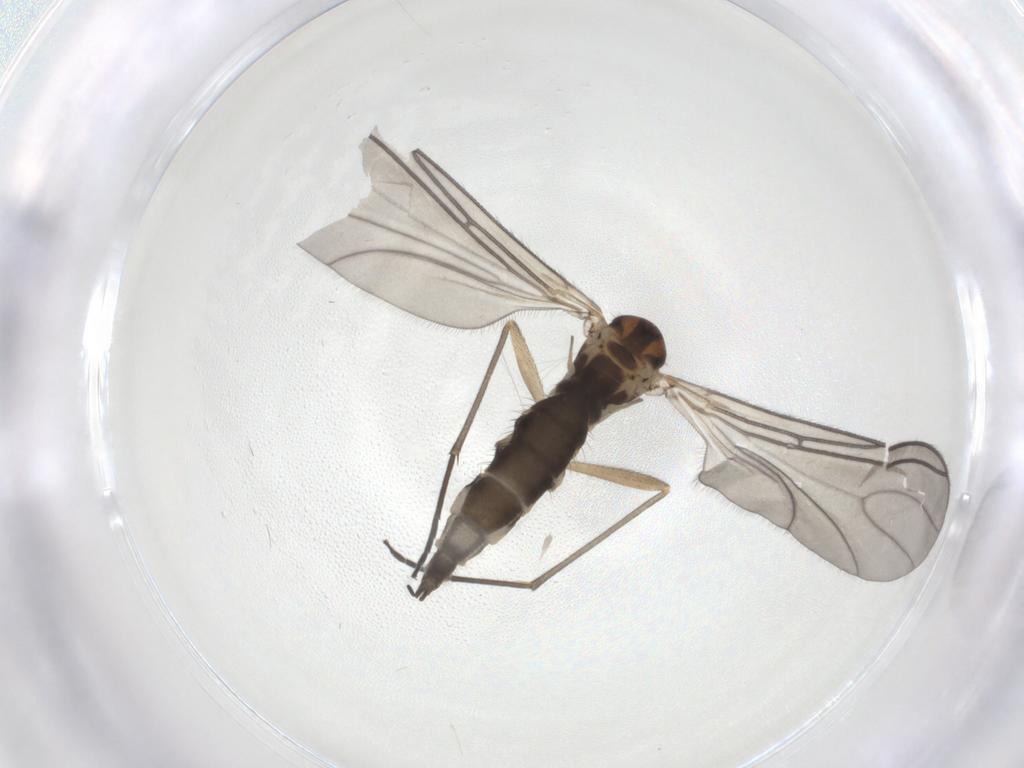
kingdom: Animalia
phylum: Arthropoda
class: Insecta
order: Diptera
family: Sciaridae
